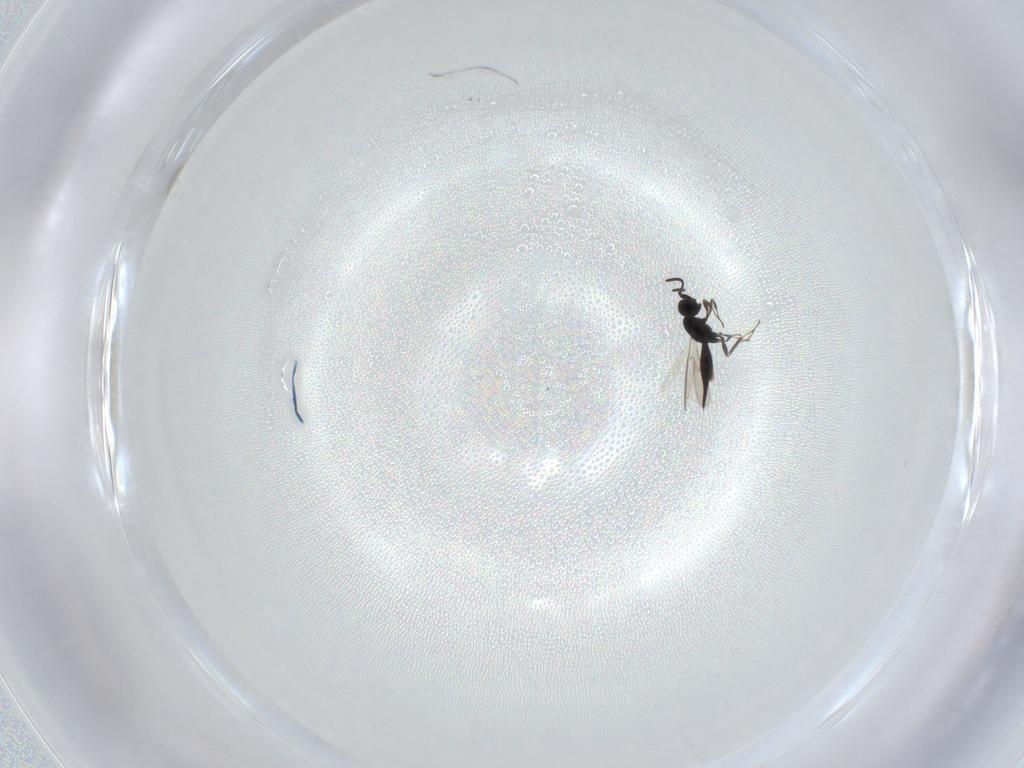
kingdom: Animalia
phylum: Arthropoda
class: Insecta
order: Hymenoptera
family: Scelionidae
